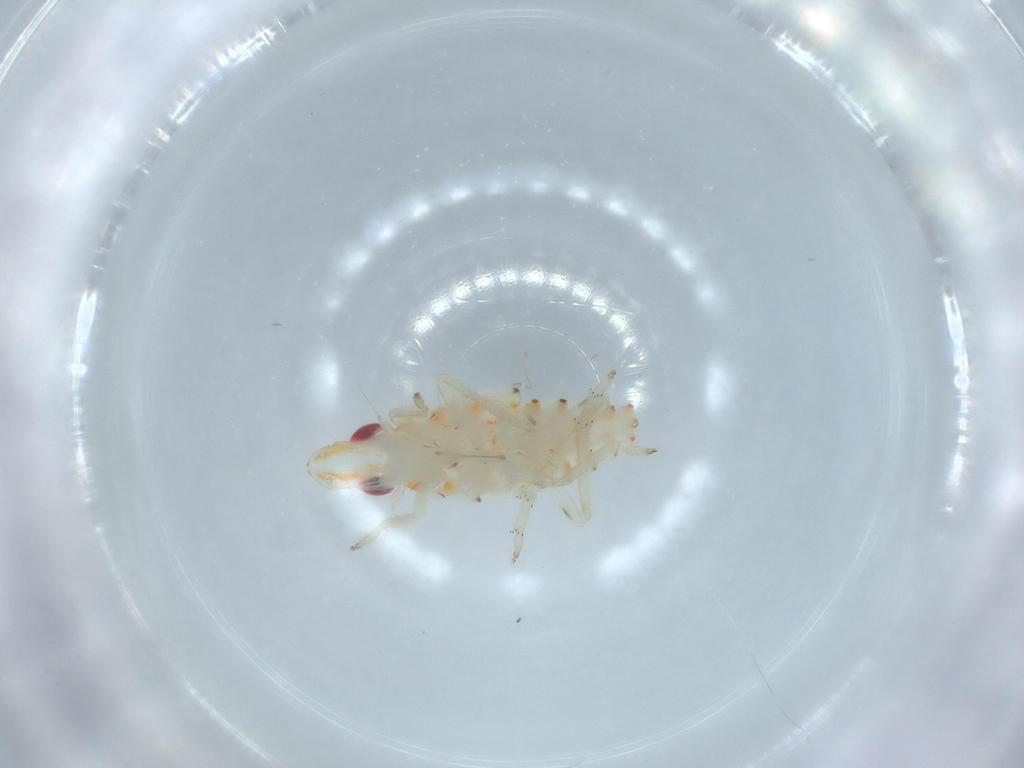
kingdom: Animalia
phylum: Arthropoda
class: Insecta
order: Hemiptera
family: Tropiduchidae
